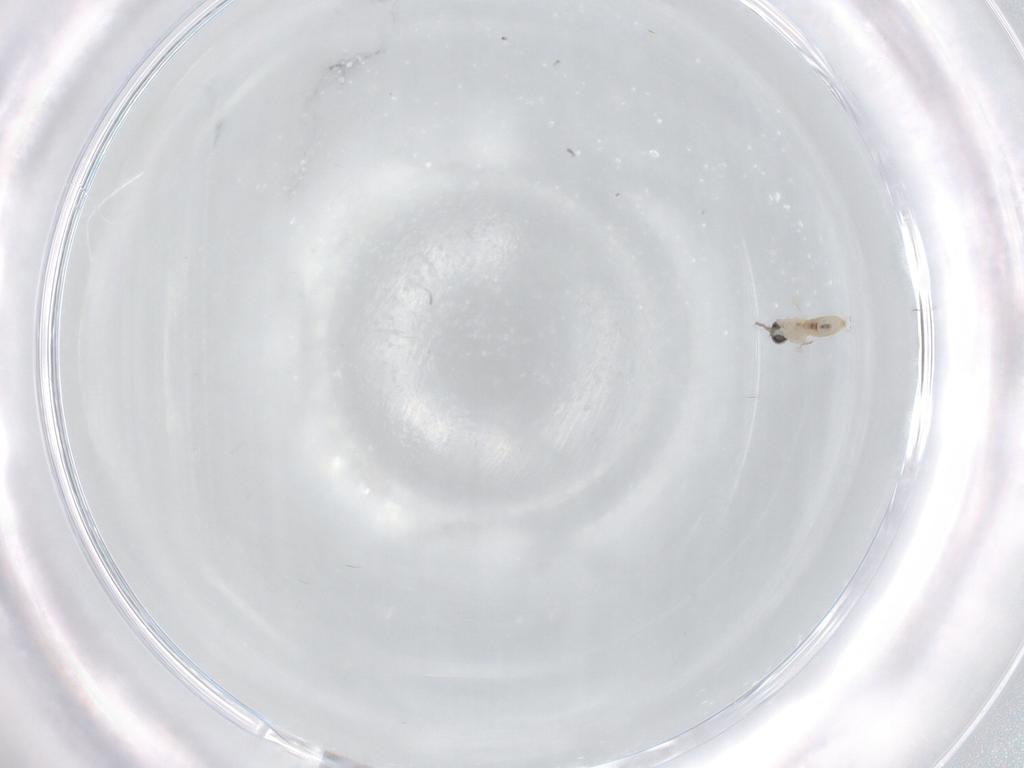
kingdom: Animalia
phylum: Arthropoda
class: Insecta
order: Diptera
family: Cecidomyiidae
